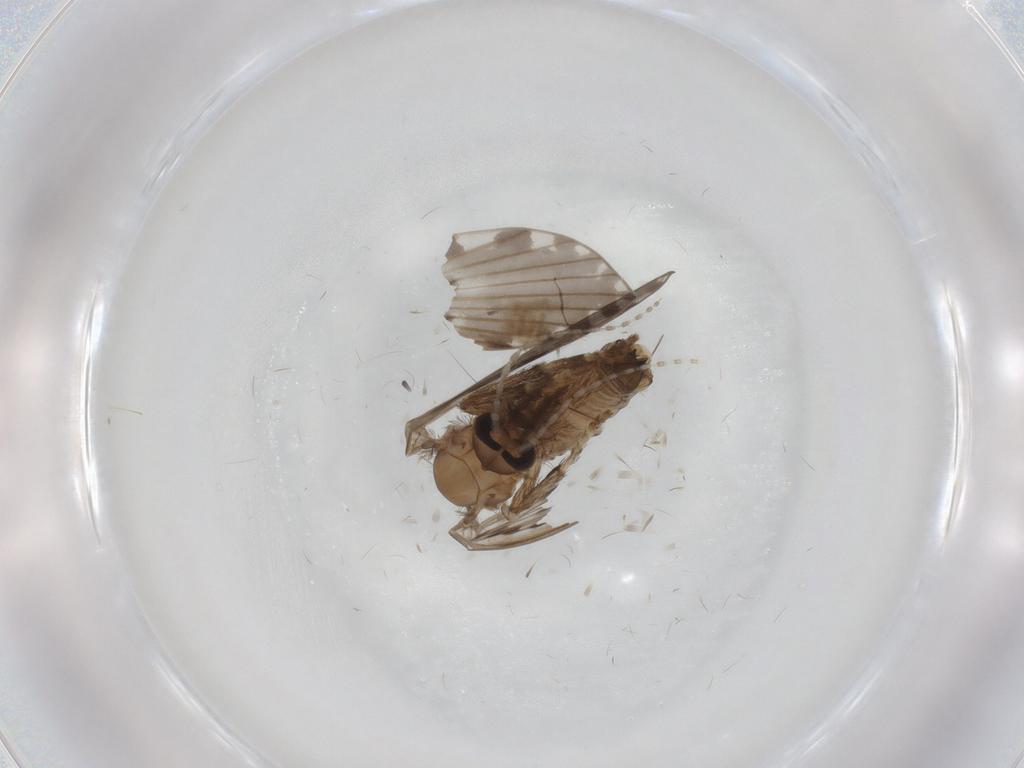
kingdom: Animalia
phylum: Arthropoda
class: Insecta
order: Diptera
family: Psychodidae
